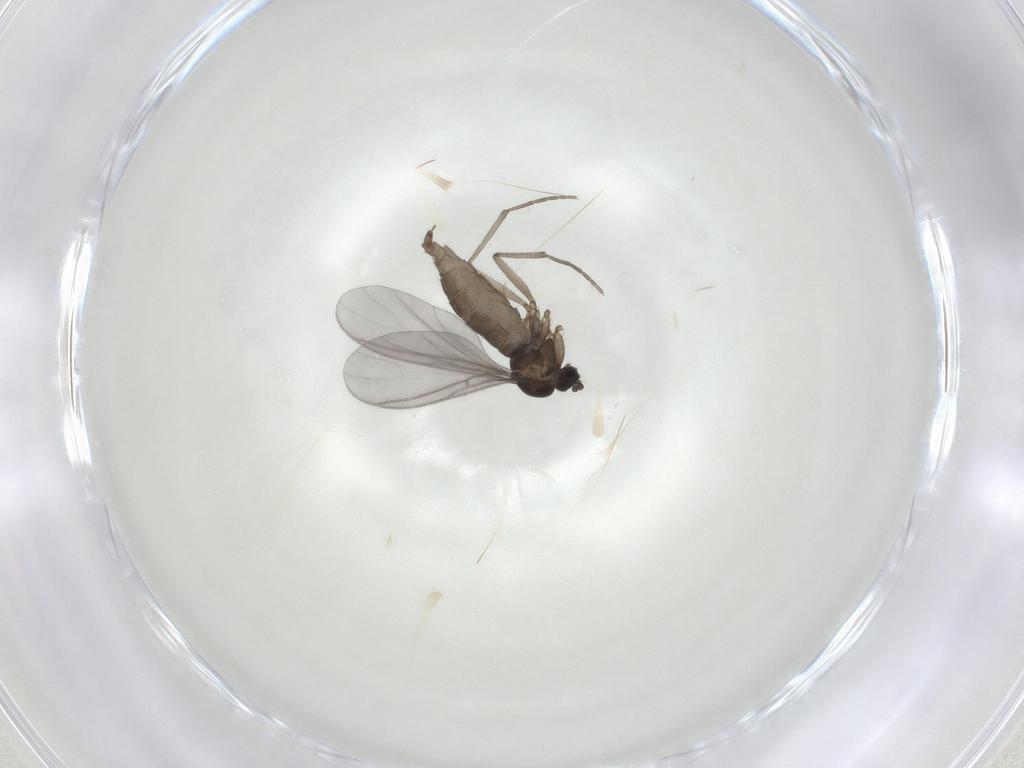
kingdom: Animalia
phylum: Arthropoda
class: Insecta
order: Diptera
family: Sciaridae
